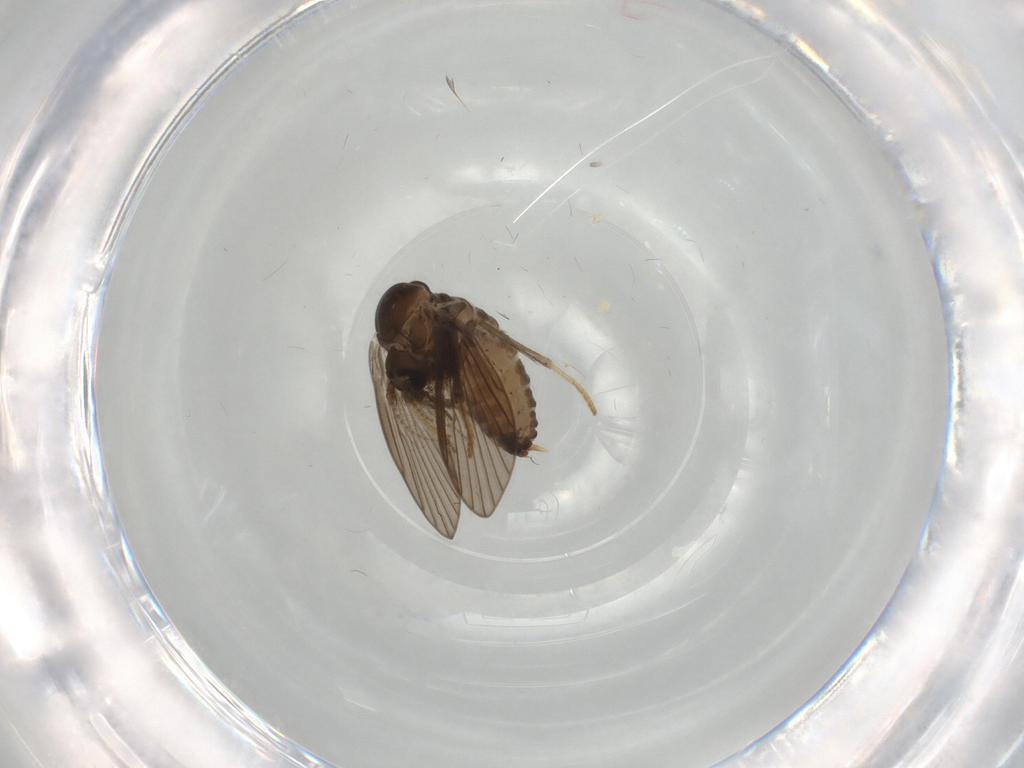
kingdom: Animalia
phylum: Arthropoda
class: Insecta
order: Diptera
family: Psychodidae
